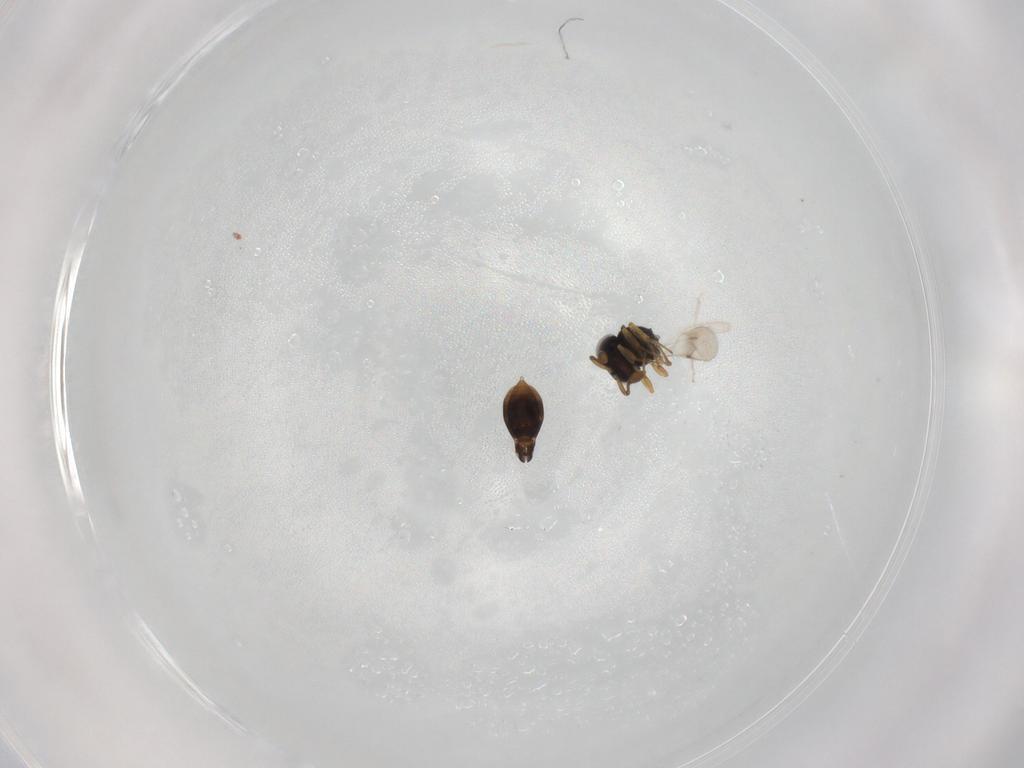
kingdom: Animalia
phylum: Arthropoda
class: Insecta
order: Hymenoptera
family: Scelionidae
